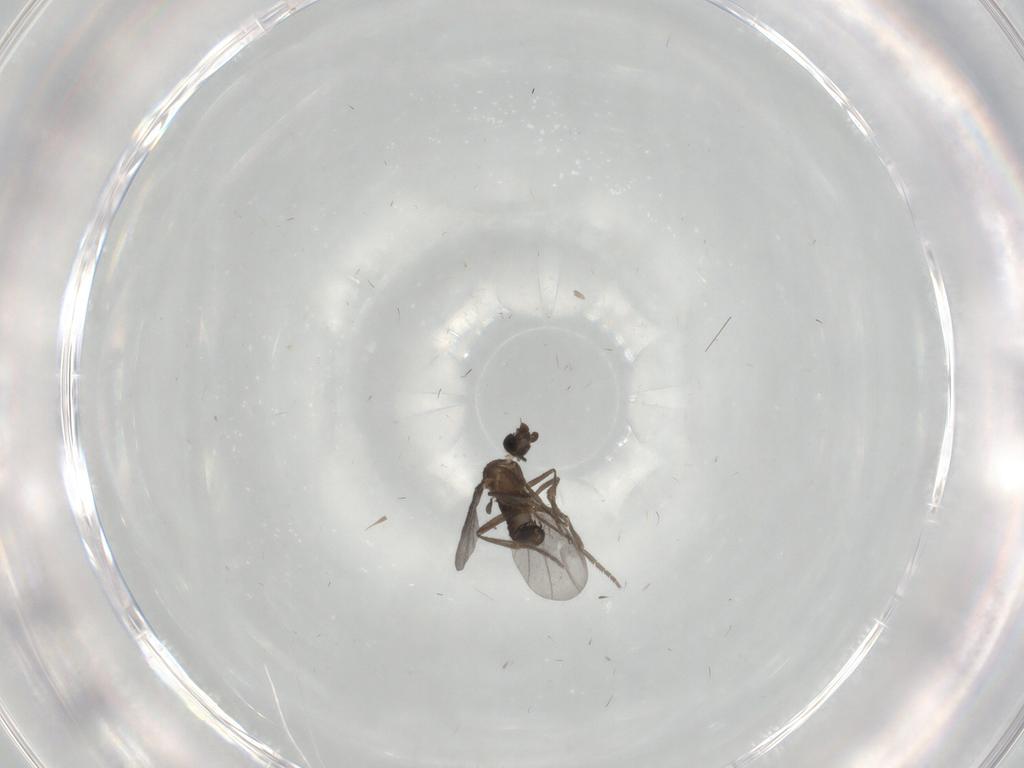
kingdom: Animalia
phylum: Arthropoda
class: Insecta
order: Diptera
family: Phoridae
